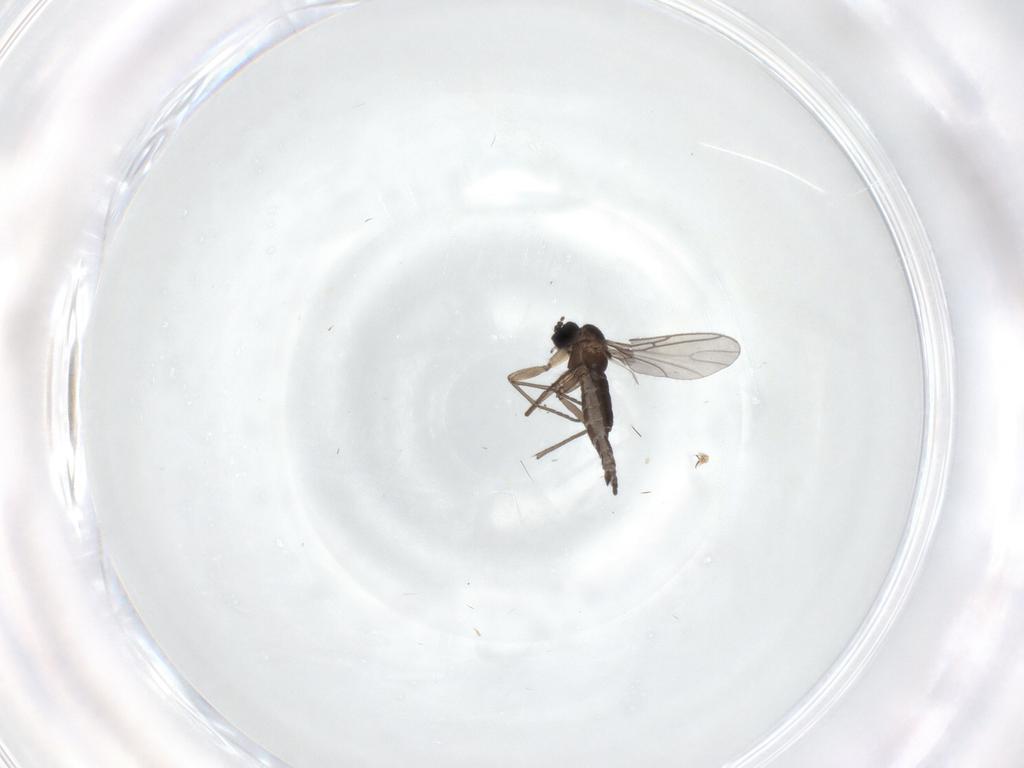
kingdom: Animalia
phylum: Arthropoda
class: Insecta
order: Diptera
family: Sciaridae
